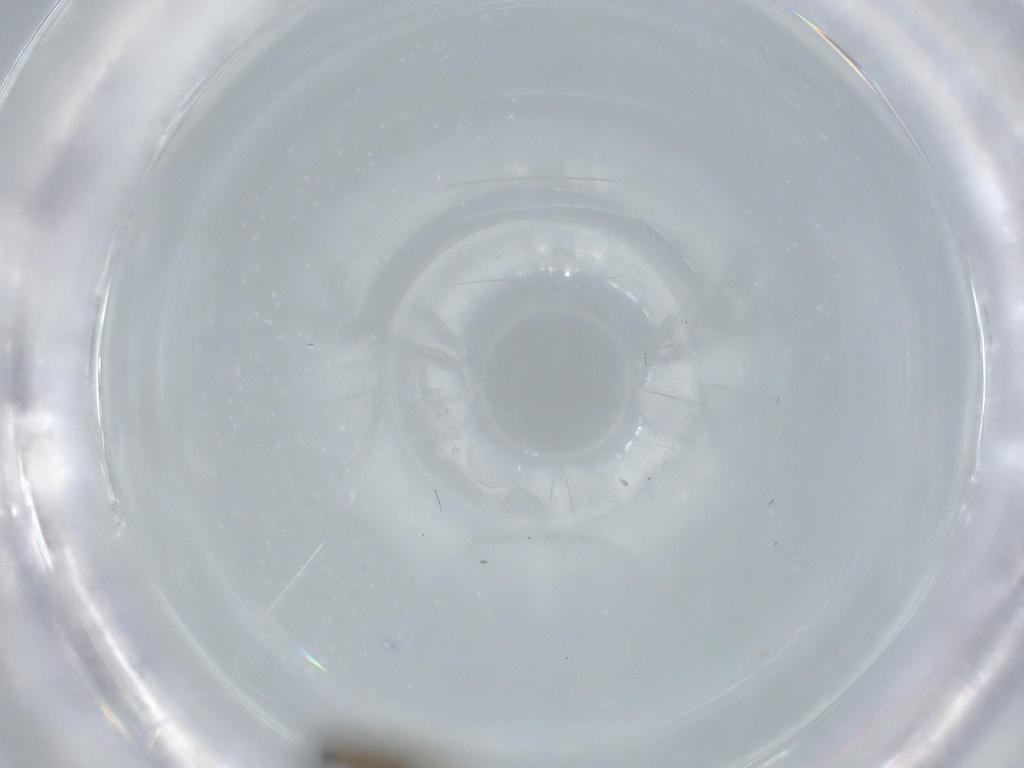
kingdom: Animalia
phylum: Arthropoda
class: Insecta
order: Diptera
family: Phoridae
